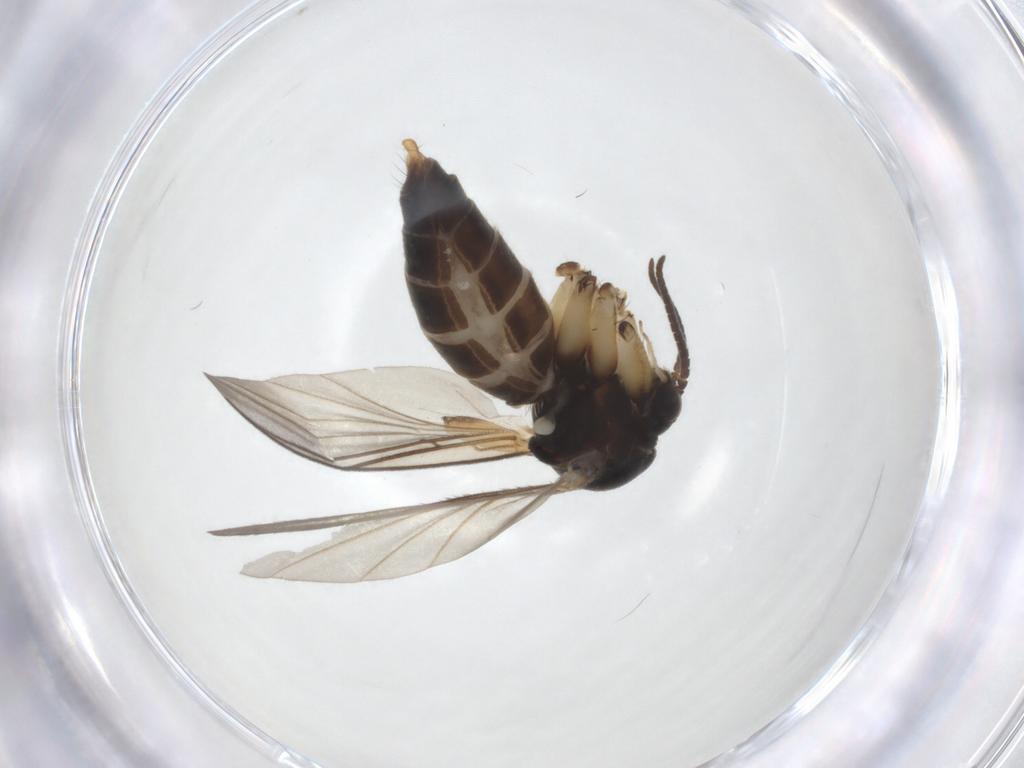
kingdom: Animalia
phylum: Arthropoda
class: Insecta
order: Diptera
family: Mycetophilidae
